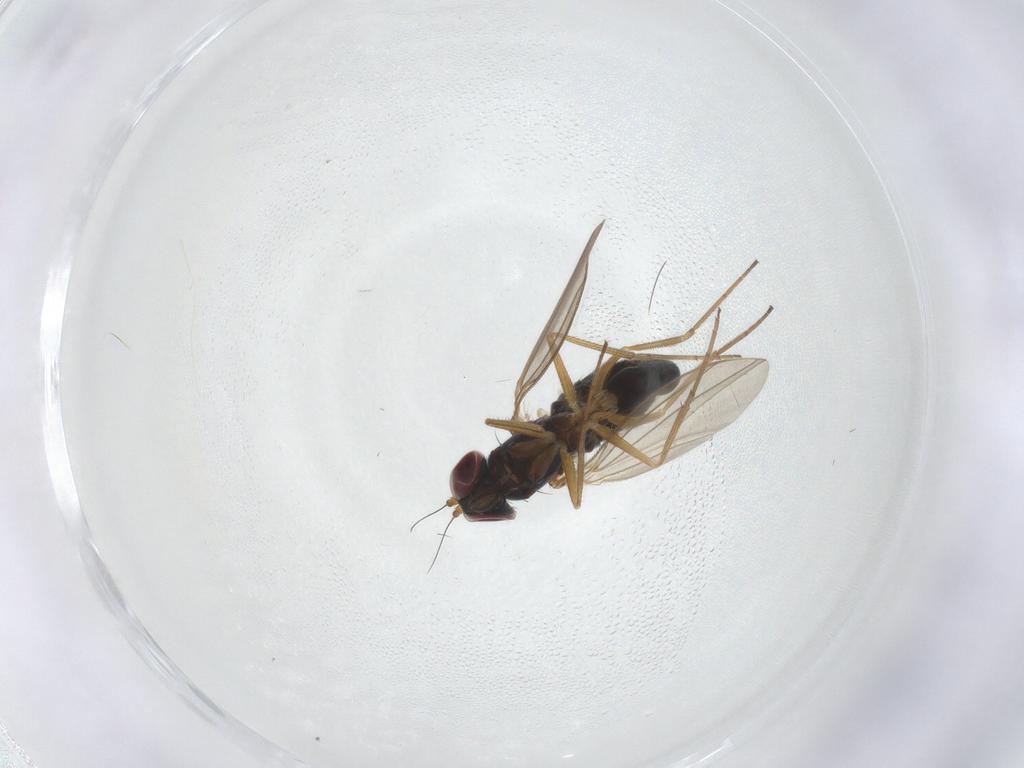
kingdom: Animalia
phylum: Arthropoda
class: Insecta
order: Diptera
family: Dolichopodidae
